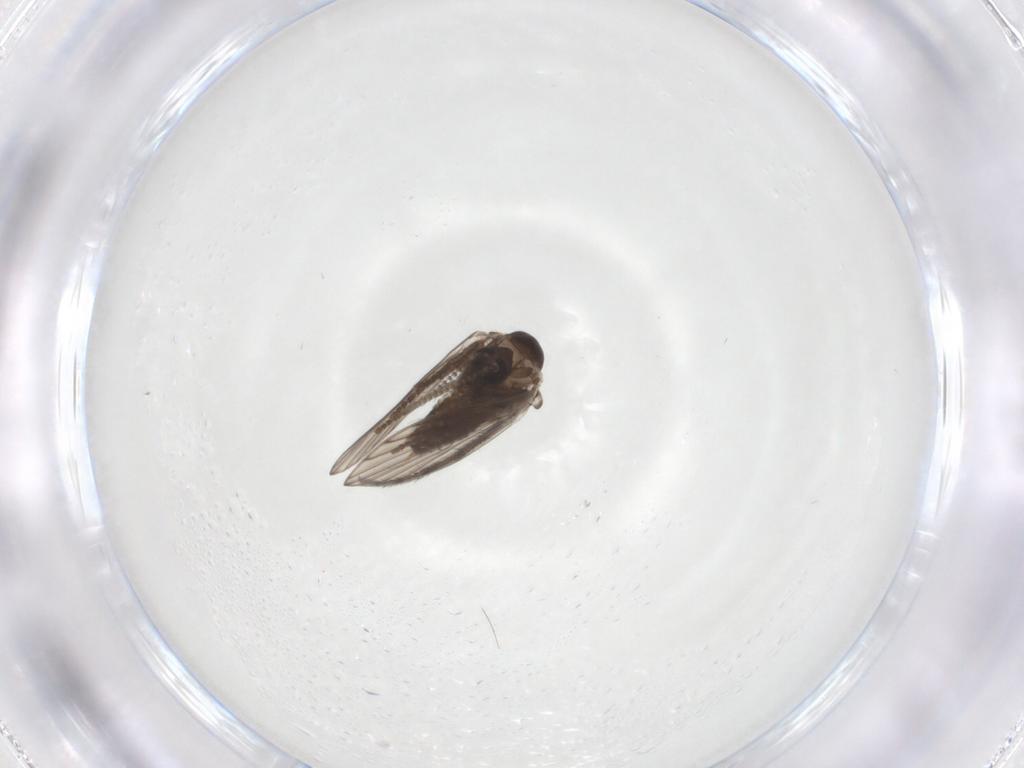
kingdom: Animalia
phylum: Arthropoda
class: Insecta
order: Diptera
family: Psychodidae
